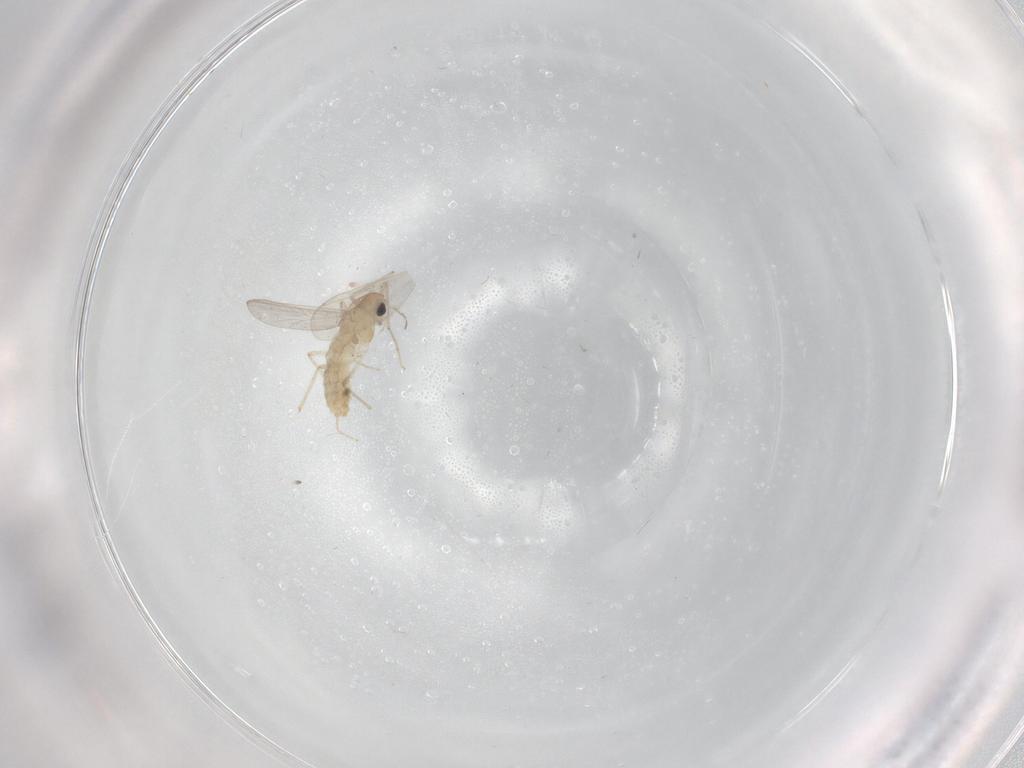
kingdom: Animalia
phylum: Arthropoda
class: Insecta
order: Diptera
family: Chironomidae
